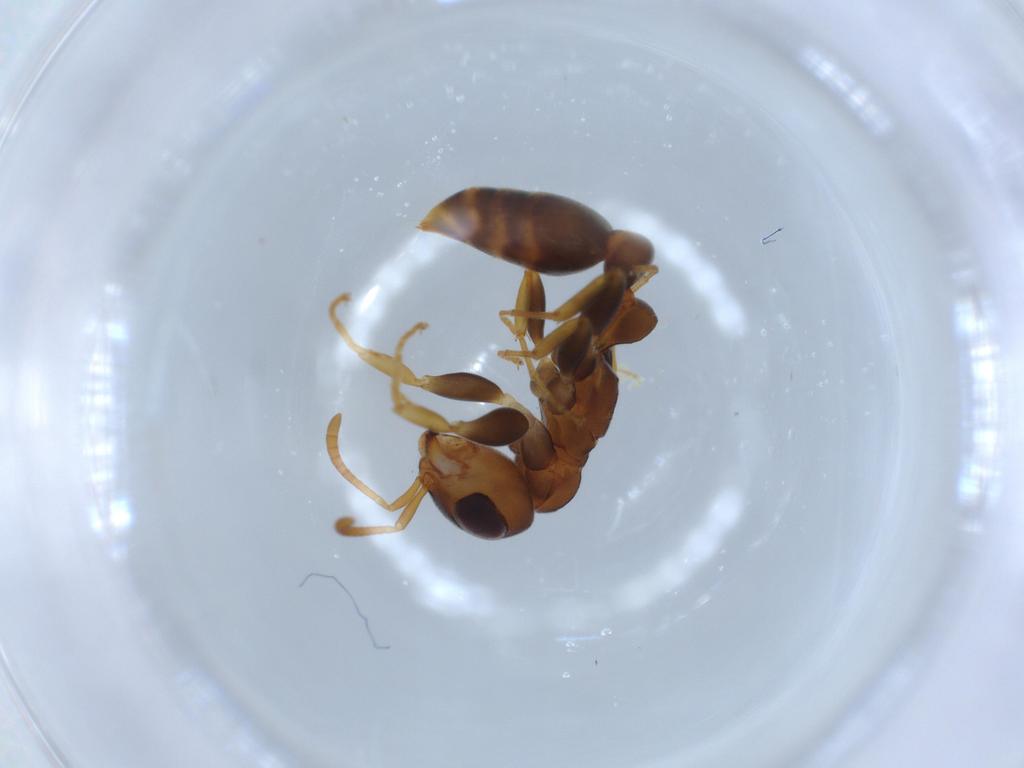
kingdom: Animalia
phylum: Arthropoda
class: Insecta
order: Hymenoptera
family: Formicidae
